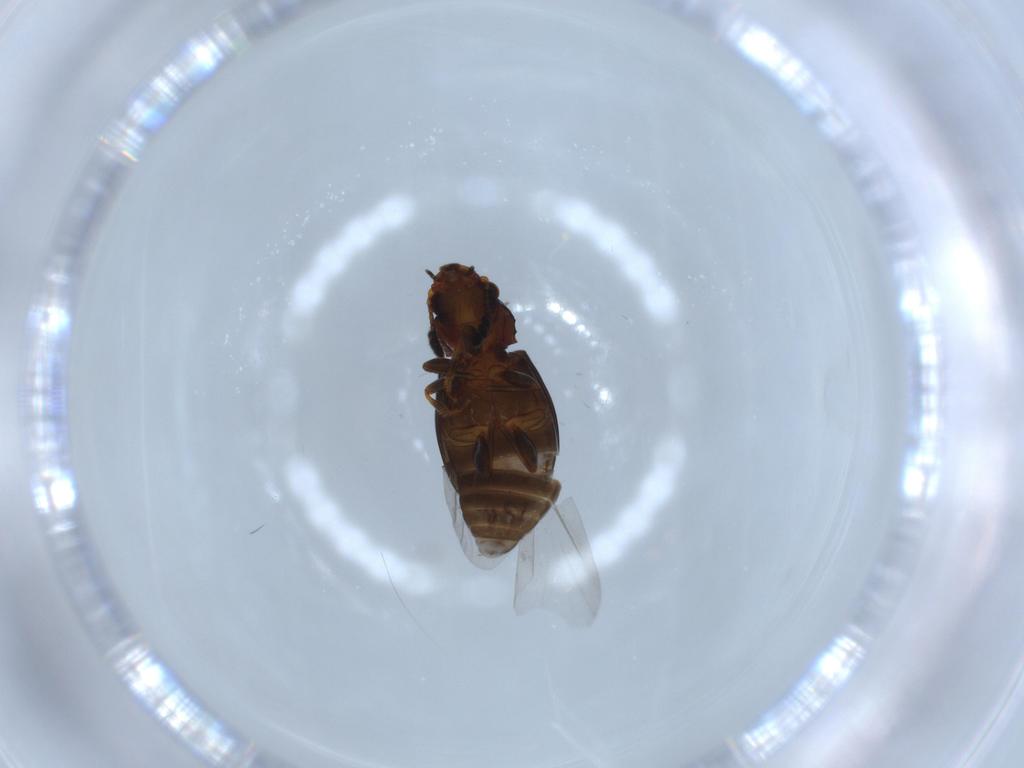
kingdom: Animalia
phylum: Arthropoda
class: Insecta
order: Coleoptera
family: Salpingidae
